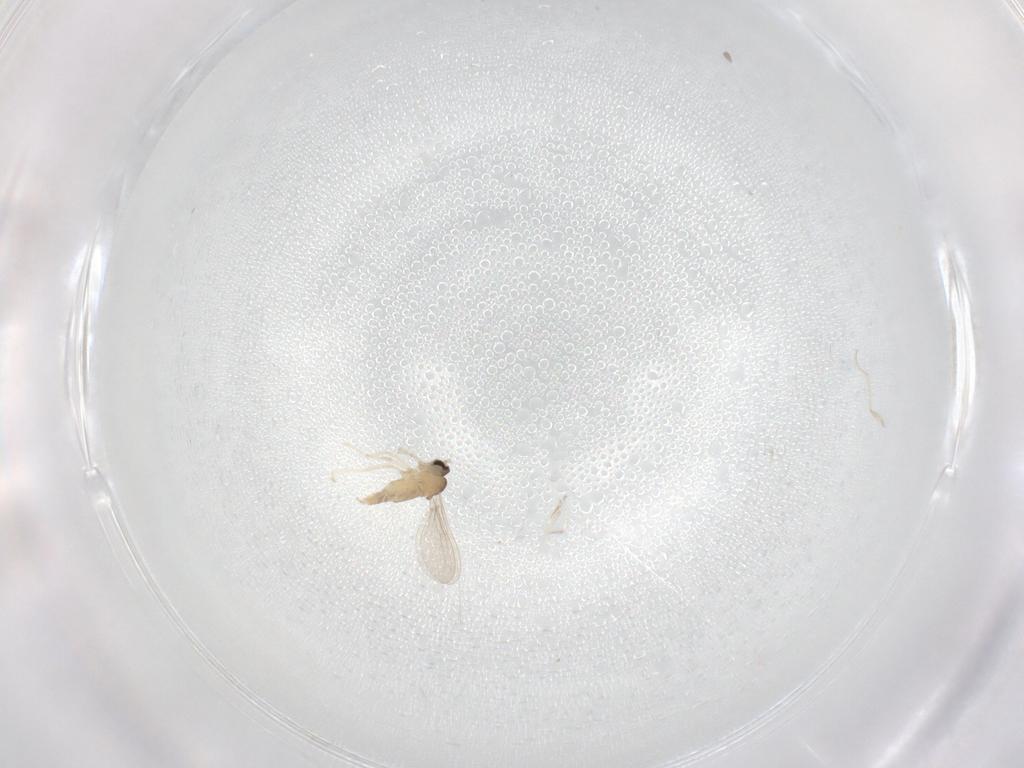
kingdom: Animalia
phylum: Arthropoda
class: Insecta
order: Diptera
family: Cecidomyiidae
